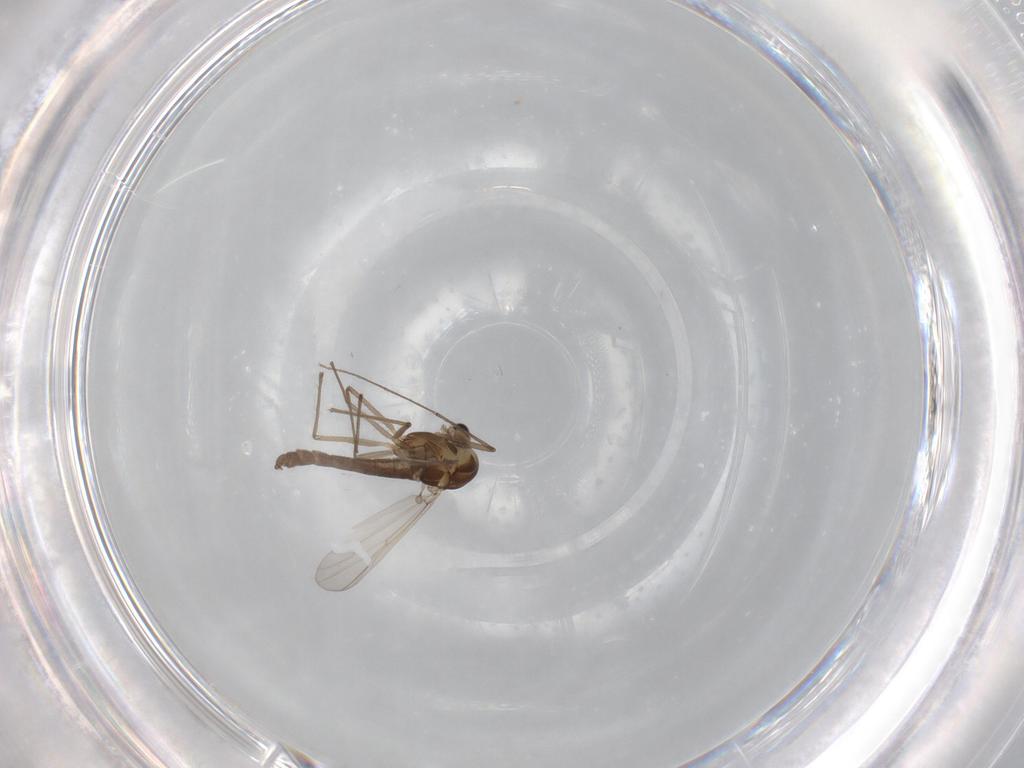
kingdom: Animalia
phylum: Arthropoda
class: Insecta
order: Diptera
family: Chironomidae
